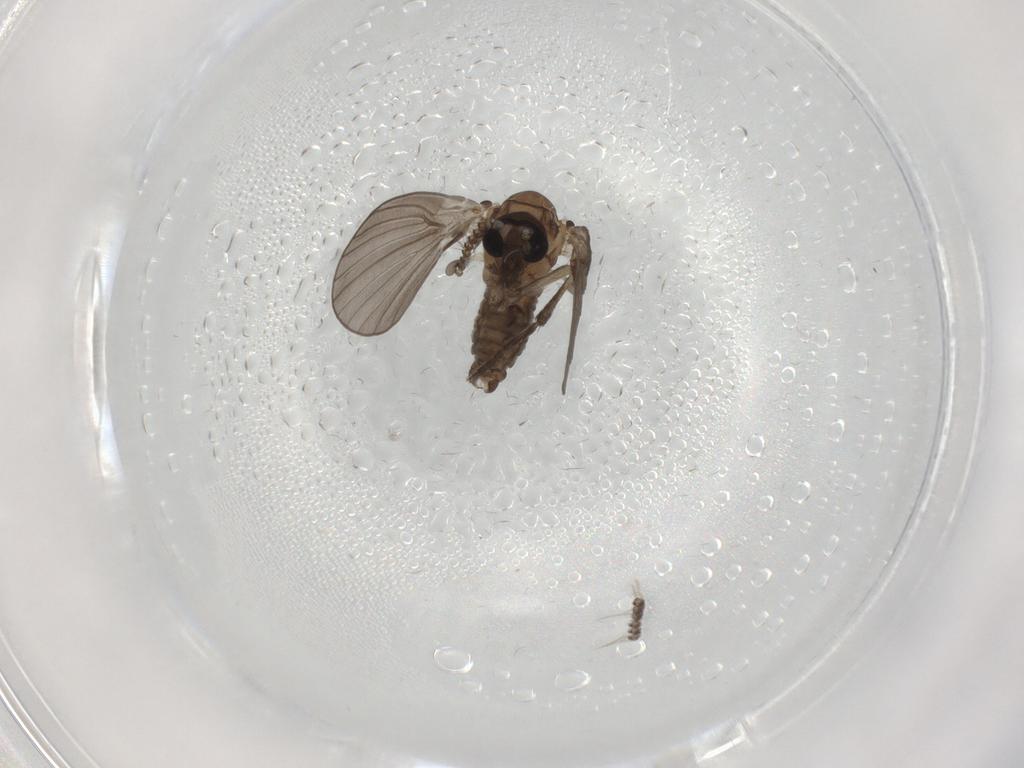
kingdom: Animalia
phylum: Arthropoda
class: Insecta
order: Diptera
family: Psychodidae
